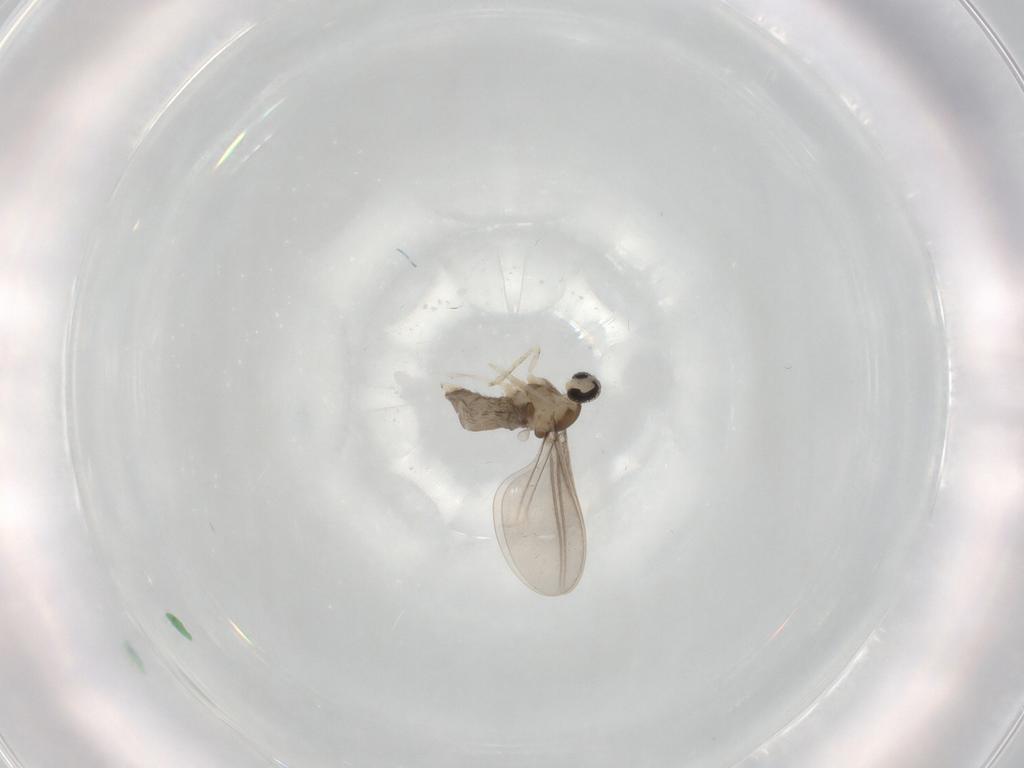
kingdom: Animalia
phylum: Arthropoda
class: Insecta
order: Diptera
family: Cecidomyiidae
